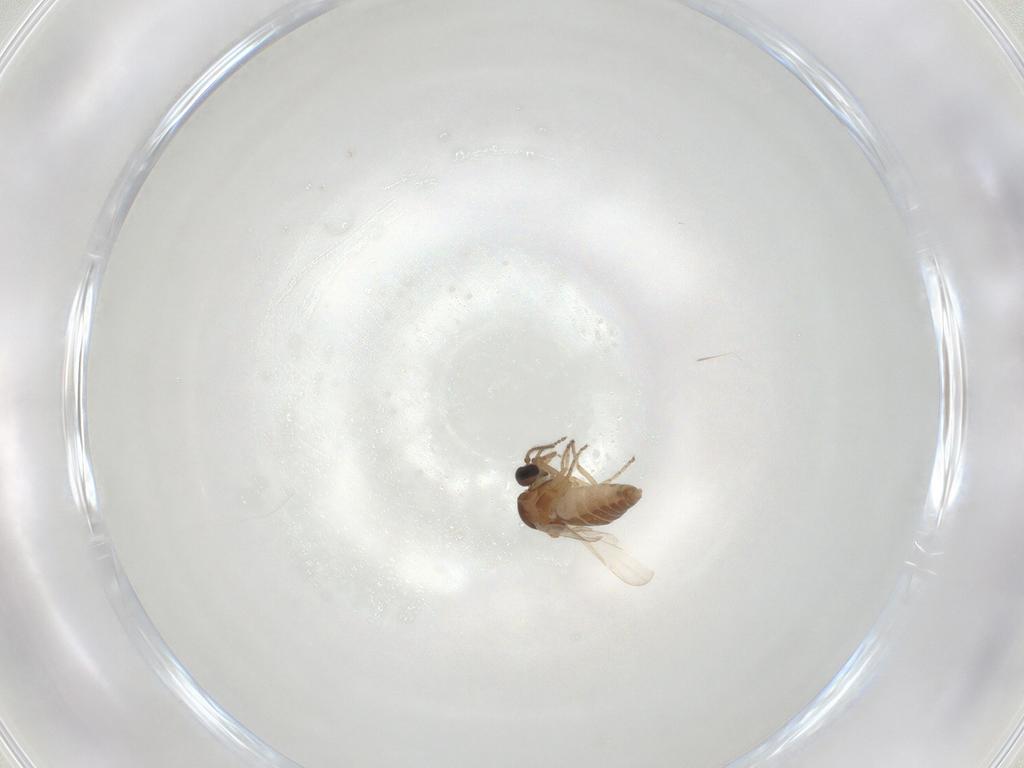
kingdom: Animalia
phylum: Arthropoda
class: Insecta
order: Diptera
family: Ceratopogonidae
